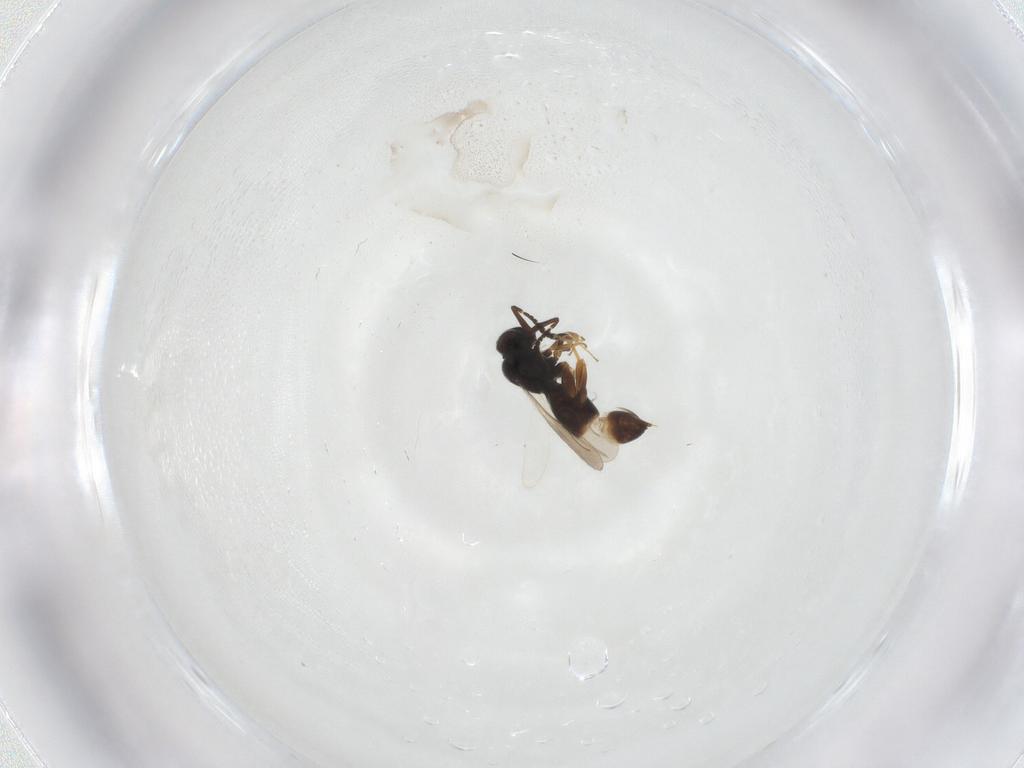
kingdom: Animalia
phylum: Arthropoda
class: Insecta
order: Hymenoptera
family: Dryinidae
